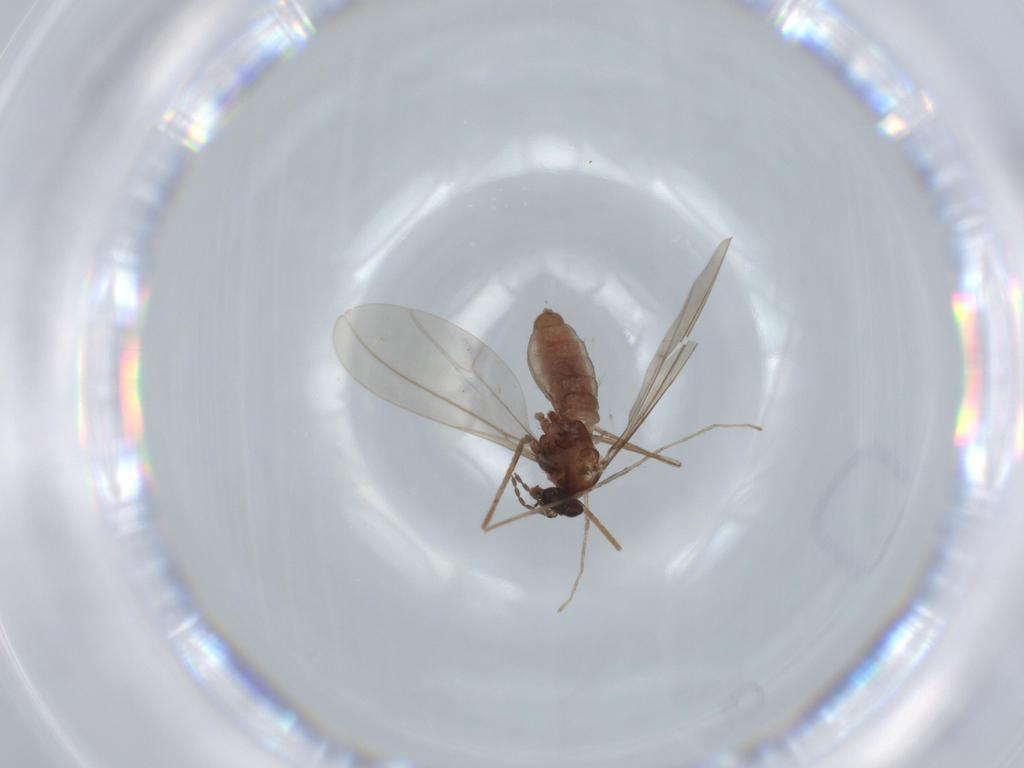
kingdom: Animalia
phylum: Arthropoda
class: Insecta
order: Diptera
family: Cecidomyiidae
